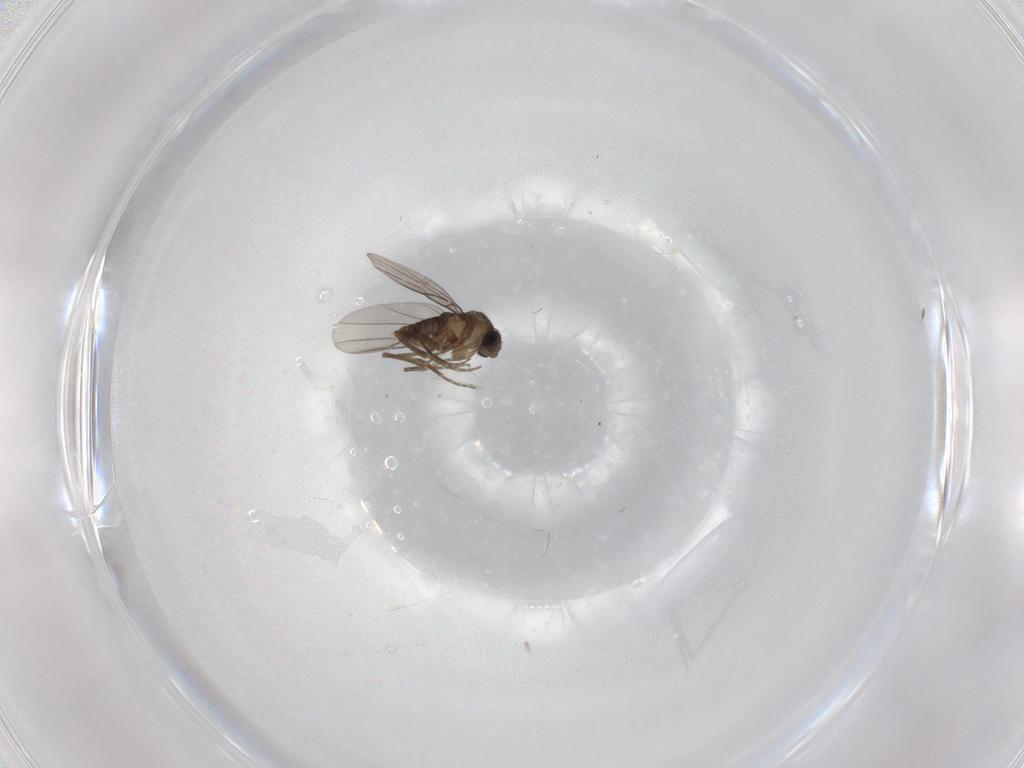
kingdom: Animalia
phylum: Arthropoda
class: Insecta
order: Diptera
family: Phoridae
